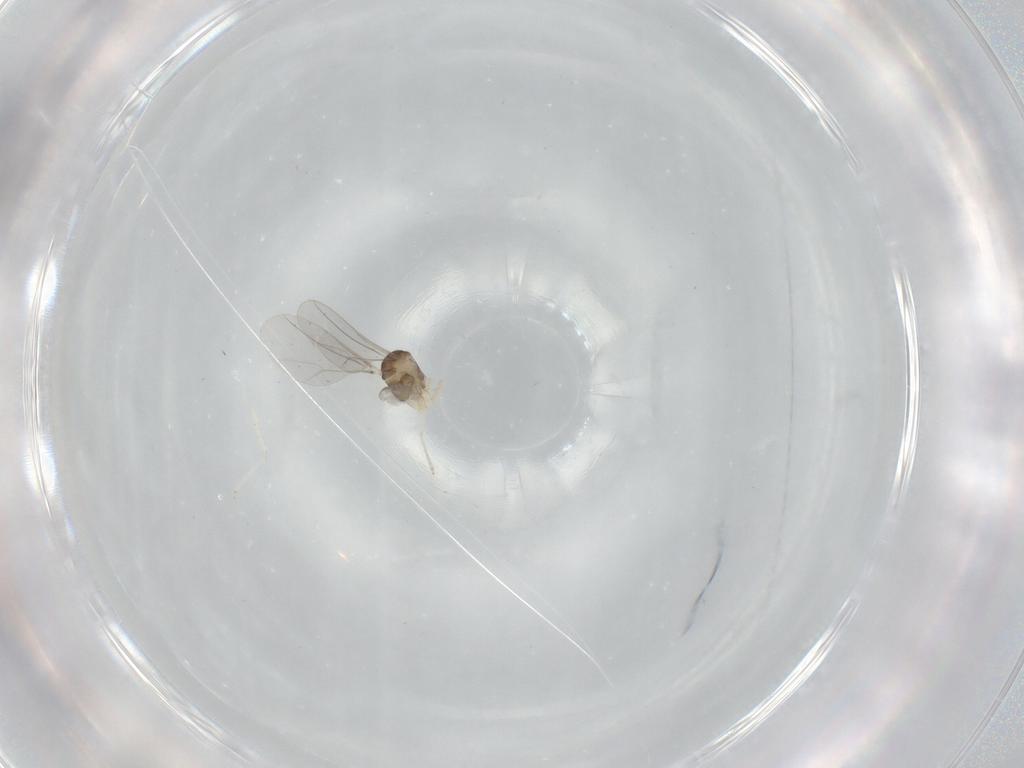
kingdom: Animalia
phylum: Arthropoda
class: Insecta
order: Diptera
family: Cecidomyiidae
